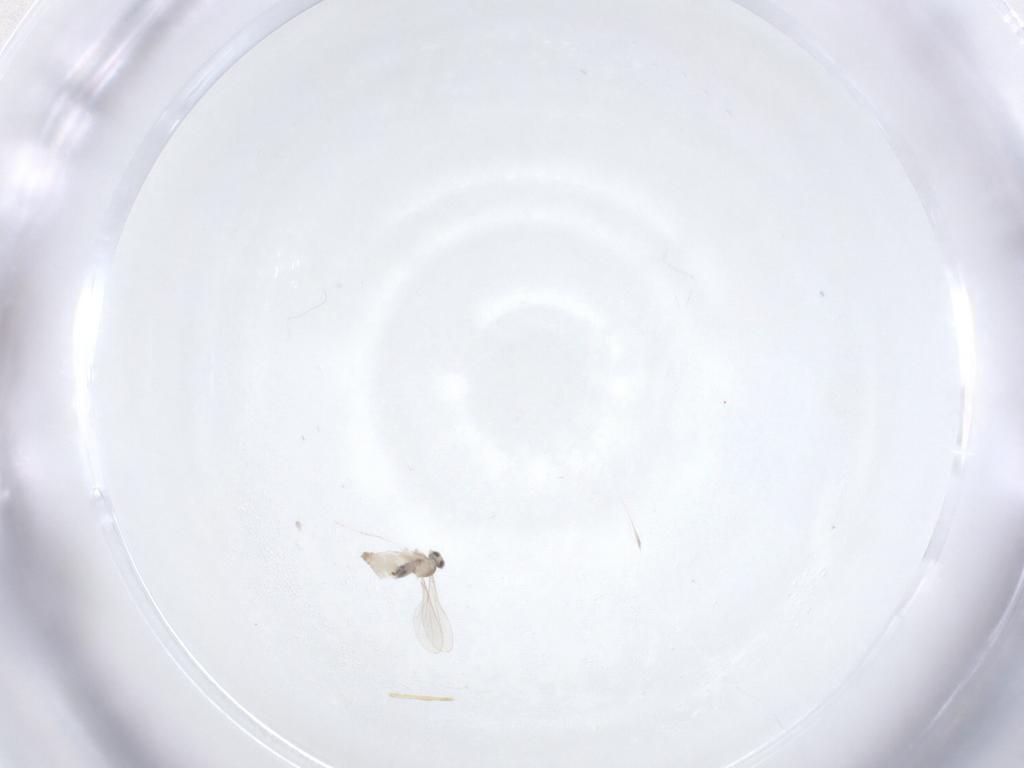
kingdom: Animalia
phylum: Arthropoda
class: Insecta
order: Diptera
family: Cecidomyiidae
